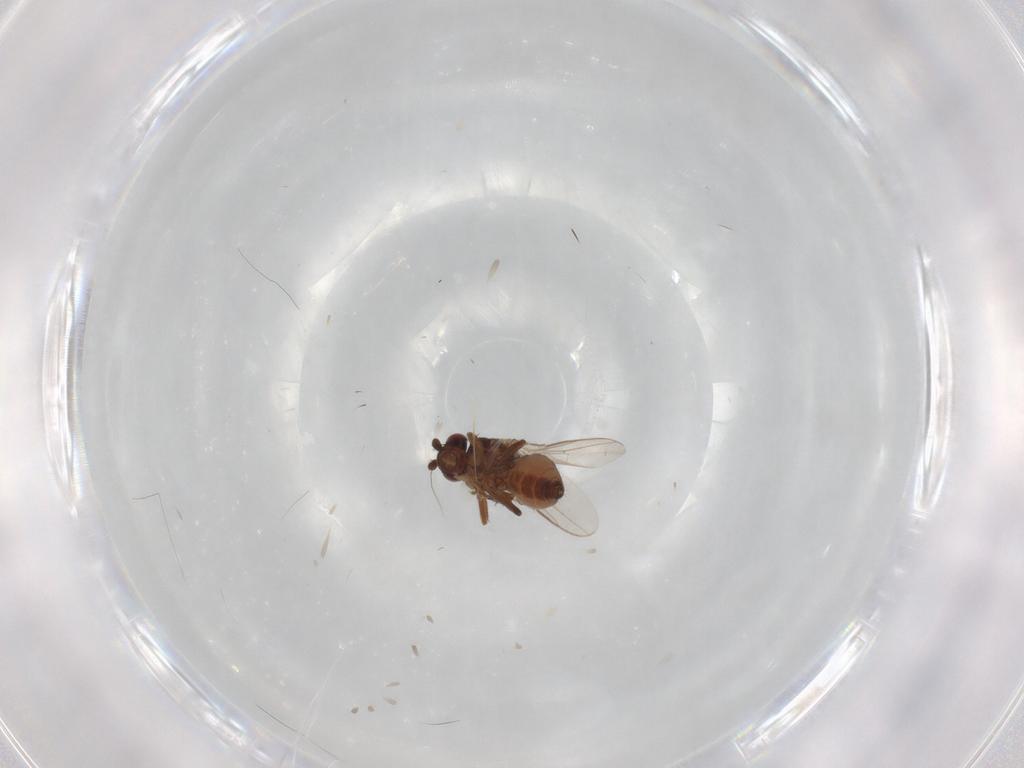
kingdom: Animalia
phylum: Arthropoda
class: Insecta
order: Diptera
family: Sphaeroceridae
